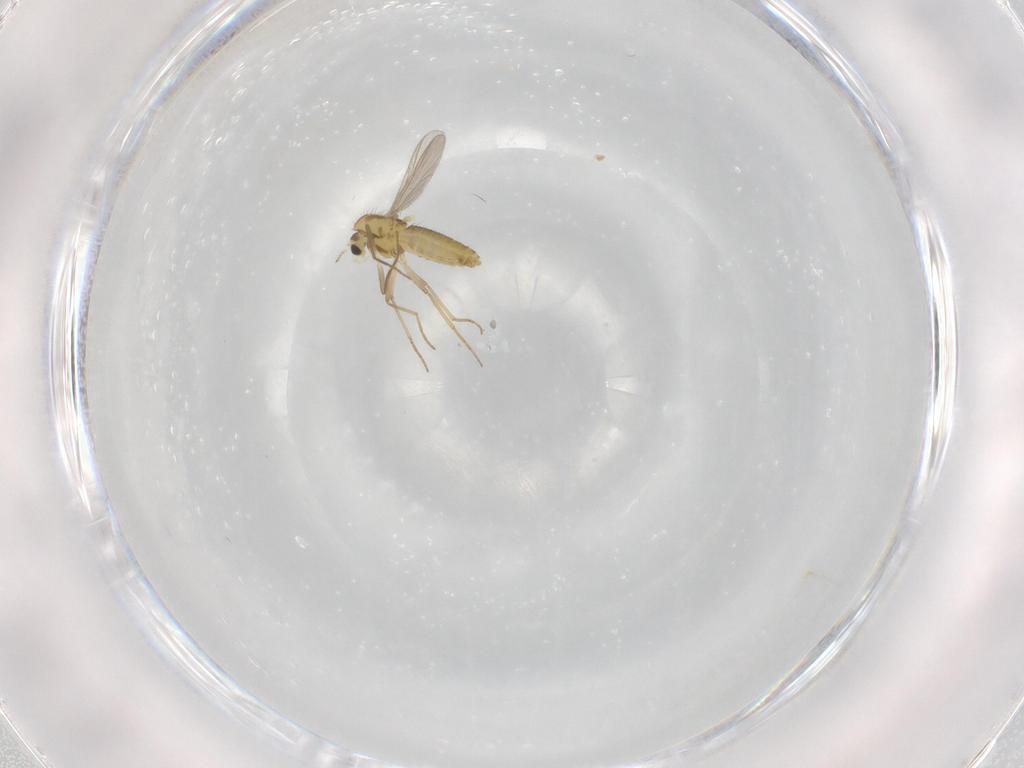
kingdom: Animalia
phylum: Arthropoda
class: Insecta
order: Diptera
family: Chironomidae
